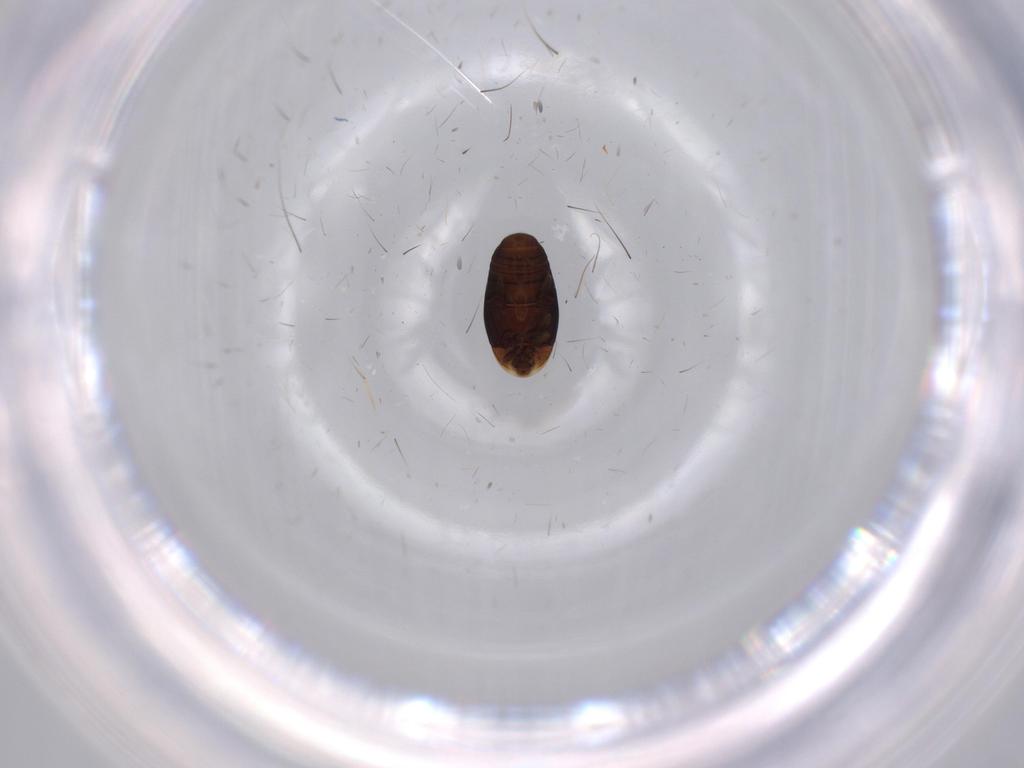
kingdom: Animalia
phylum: Arthropoda
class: Insecta
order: Coleoptera
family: Corylophidae
